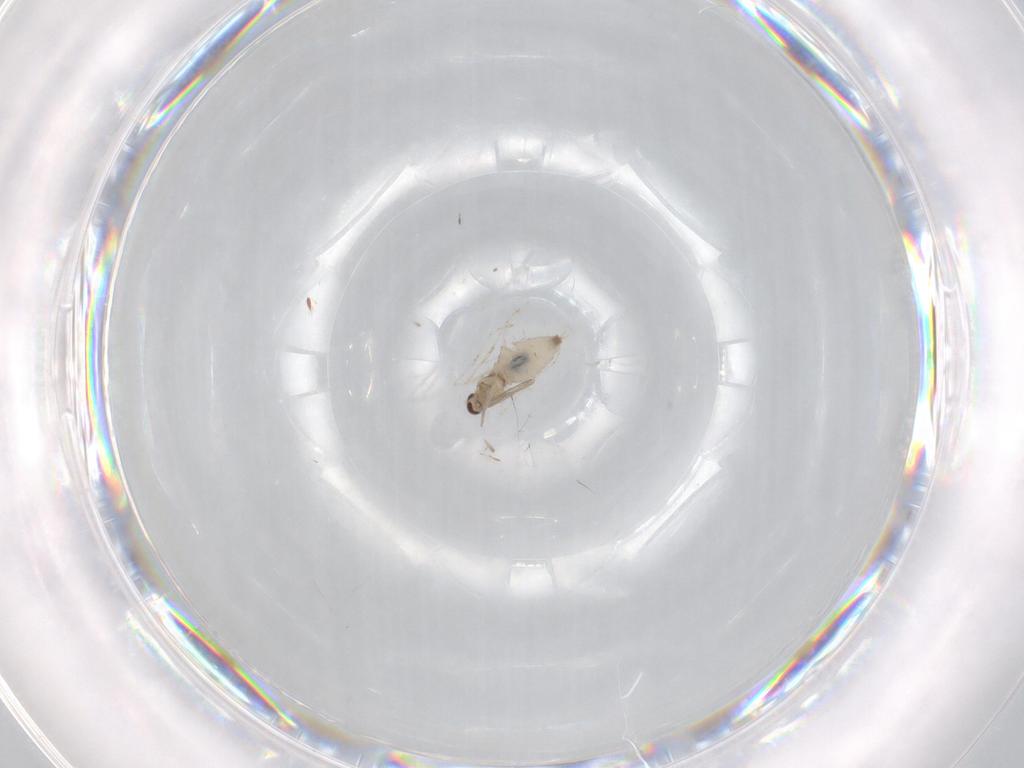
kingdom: Animalia
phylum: Arthropoda
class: Insecta
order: Diptera
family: Cecidomyiidae
